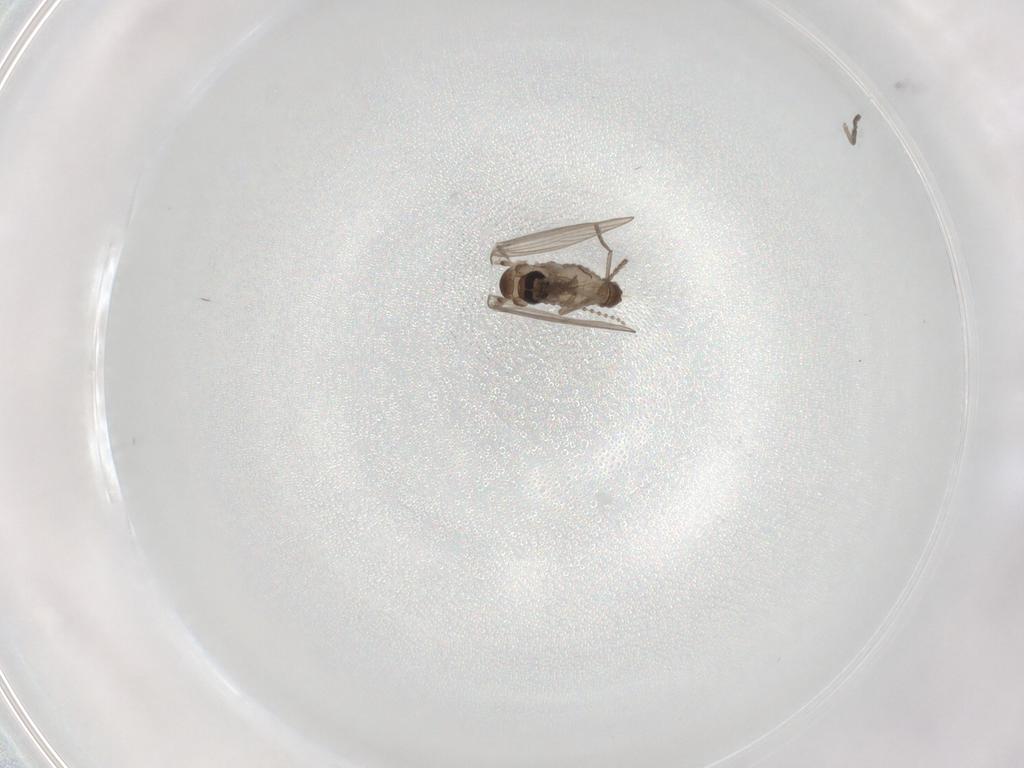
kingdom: Animalia
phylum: Arthropoda
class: Insecta
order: Diptera
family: Psychodidae
